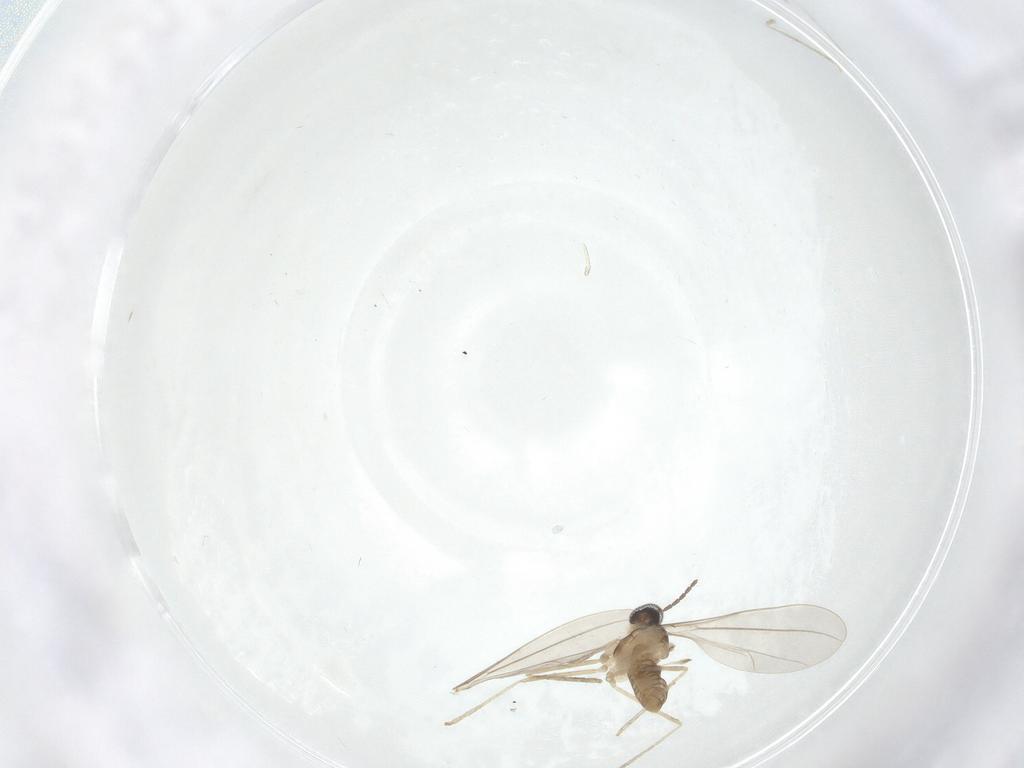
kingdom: Animalia
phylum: Arthropoda
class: Insecta
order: Diptera
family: Cecidomyiidae
